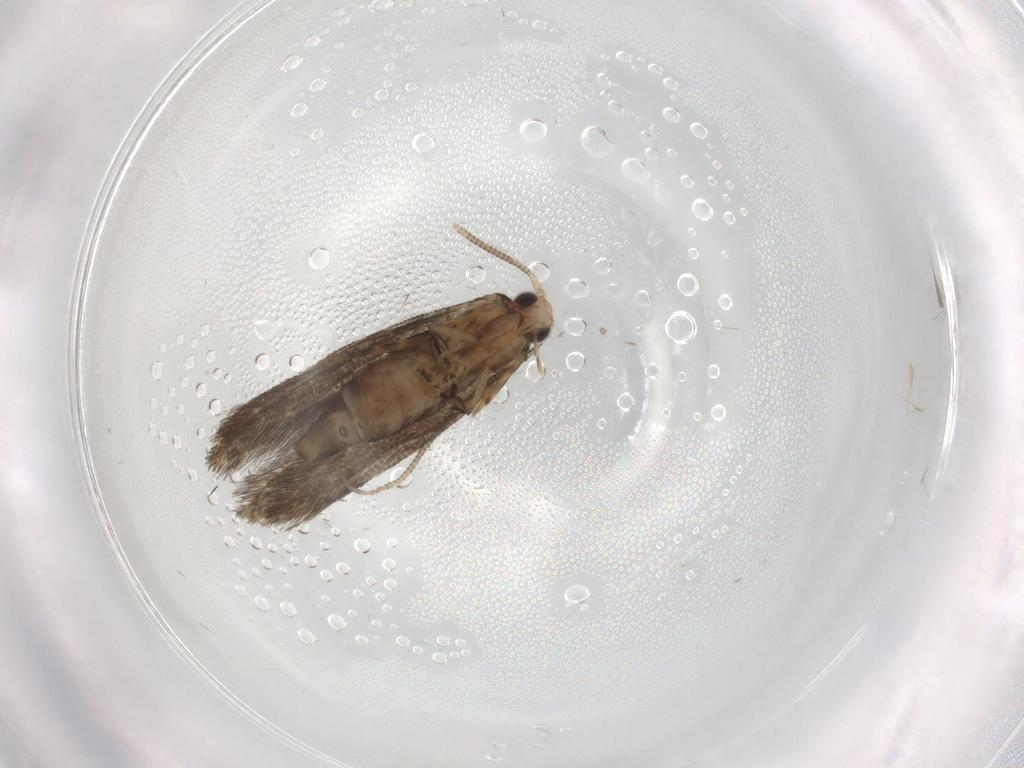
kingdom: Animalia
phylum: Arthropoda
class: Insecta
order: Lepidoptera
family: Tineidae
